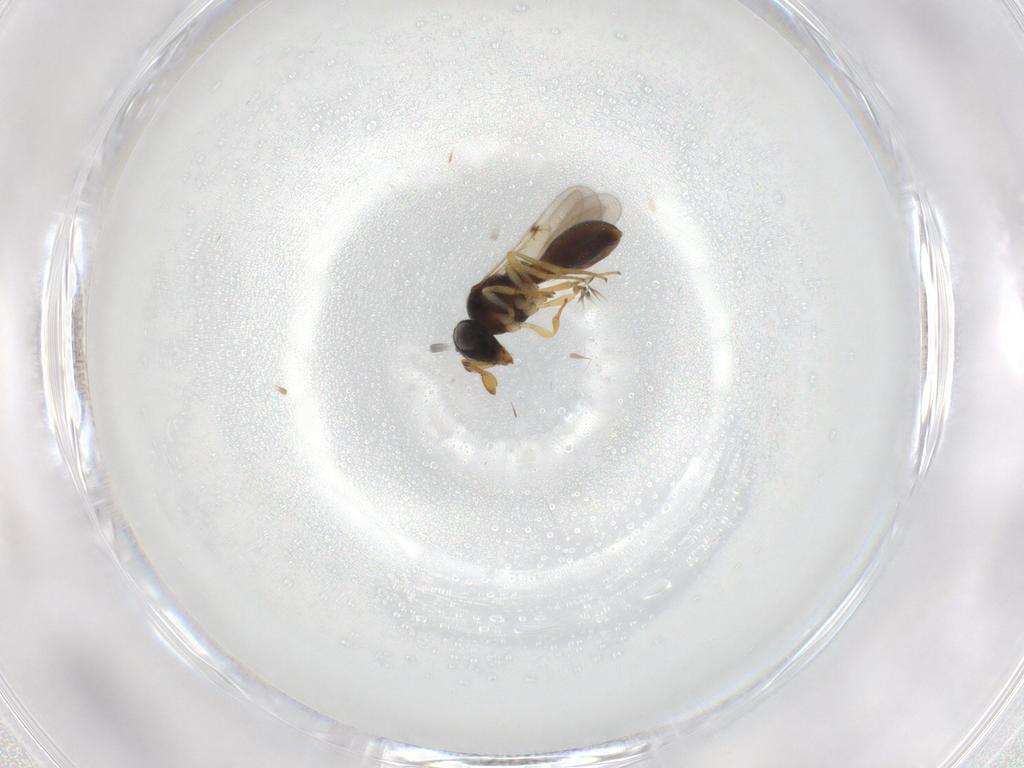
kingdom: Animalia
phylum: Arthropoda
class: Insecta
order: Hymenoptera
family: Scelionidae
